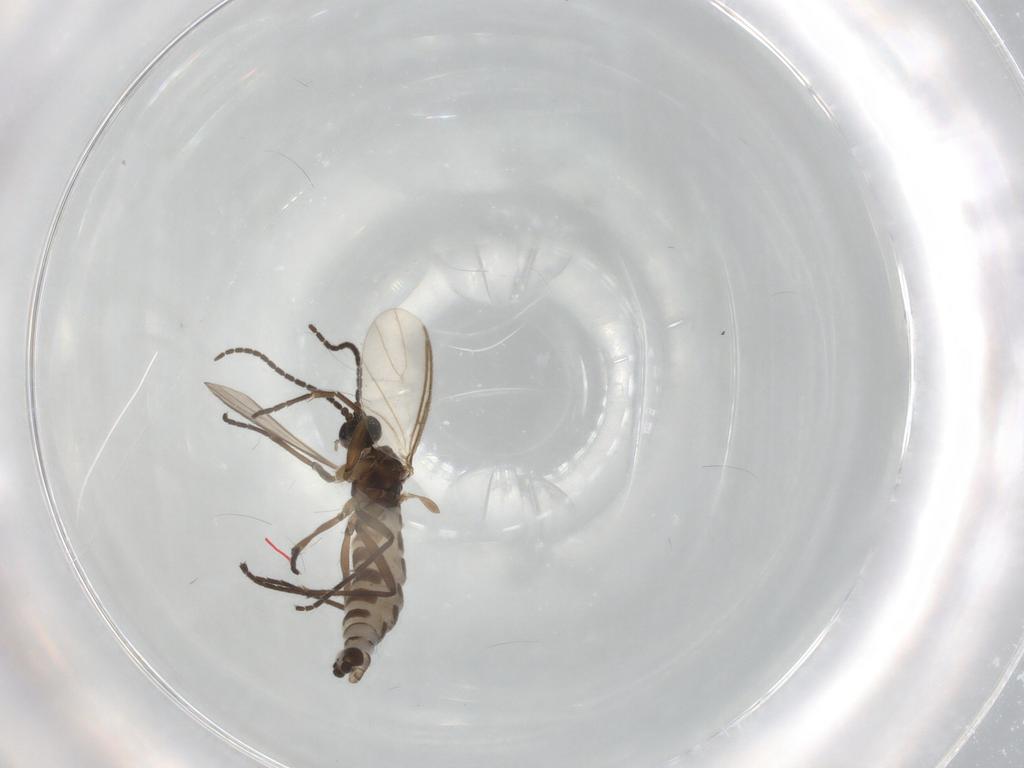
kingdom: Animalia
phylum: Arthropoda
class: Insecta
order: Diptera
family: Sciaridae
